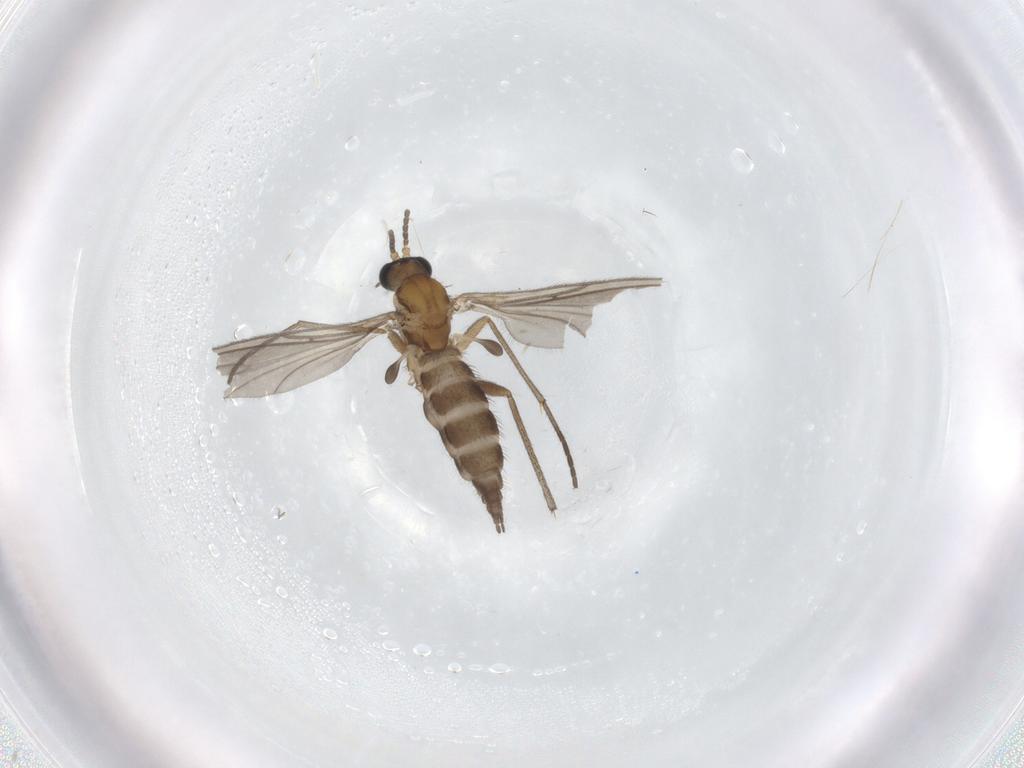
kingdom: Animalia
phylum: Arthropoda
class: Insecta
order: Diptera
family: Sciaridae
